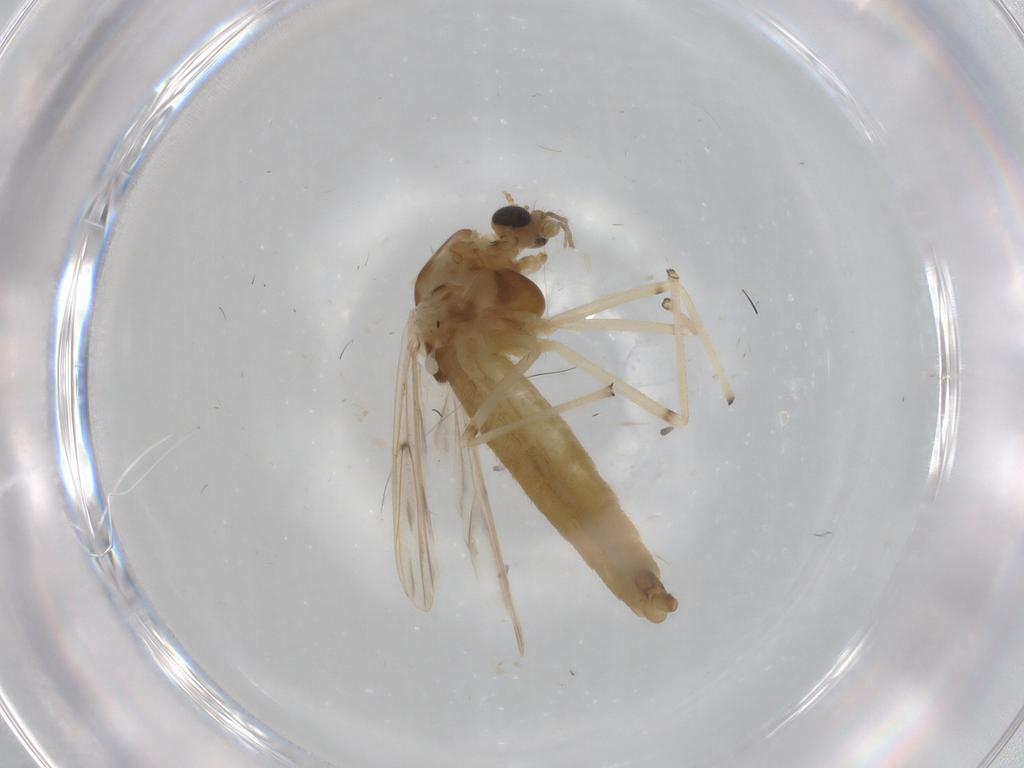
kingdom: Animalia
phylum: Arthropoda
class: Insecta
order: Diptera
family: Chironomidae
